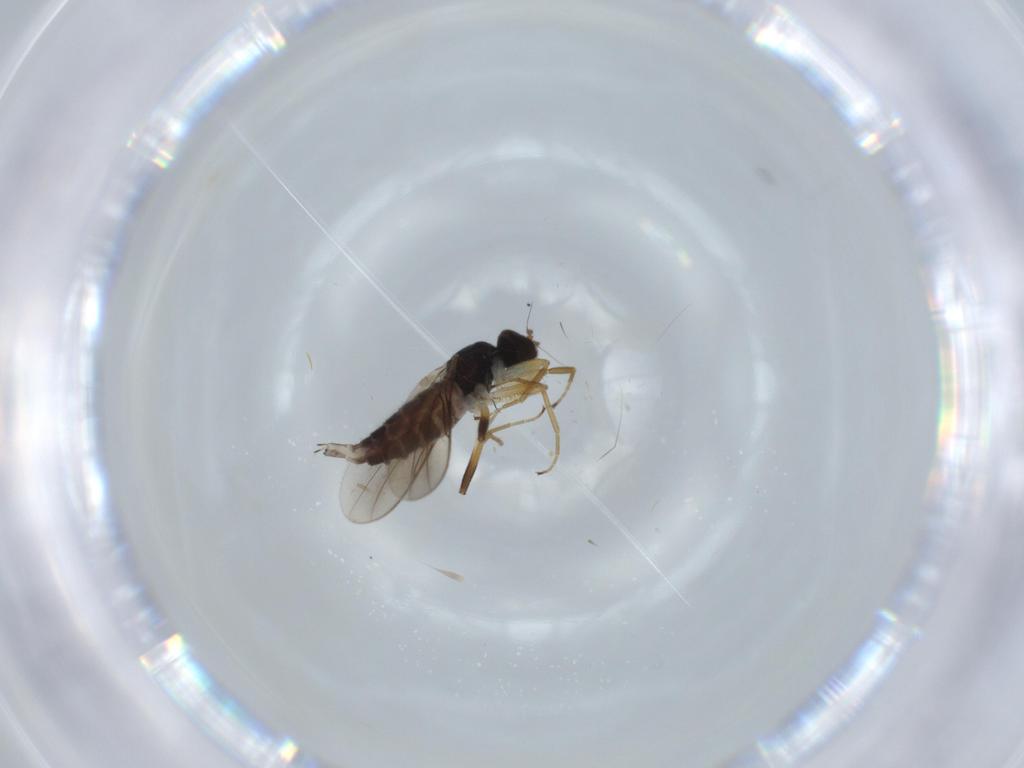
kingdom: Animalia
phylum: Arthropoda
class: Insecta
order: Diptera
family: Hybotidae
